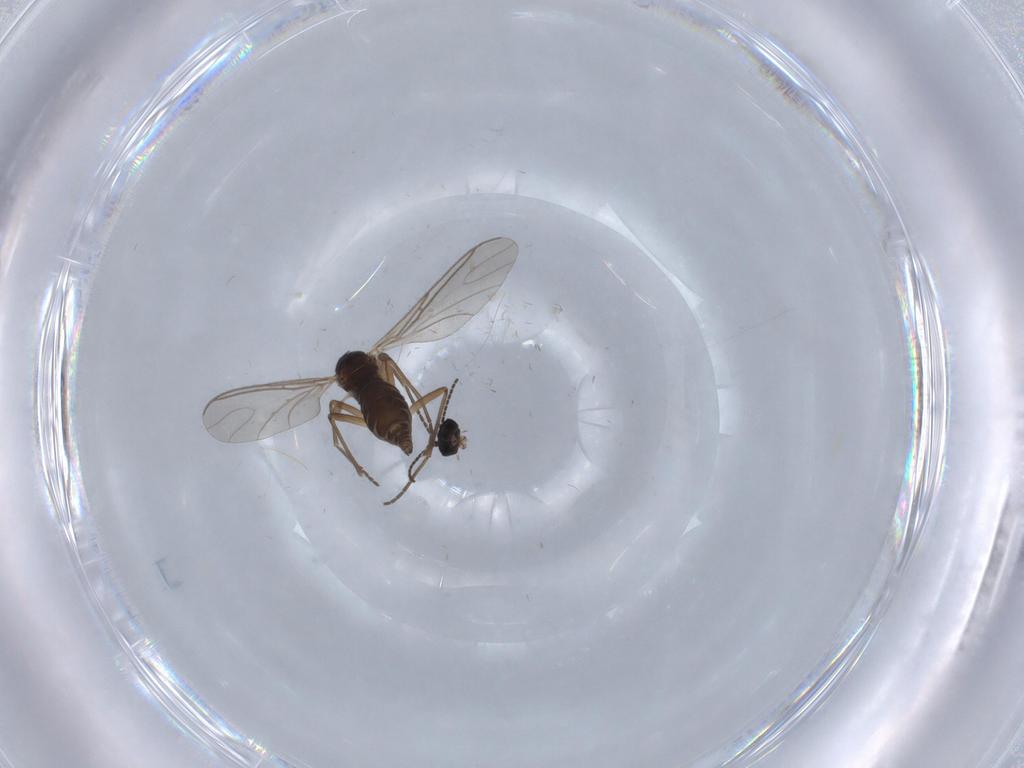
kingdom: Animalia
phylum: Arthropoda
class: Insecta
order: Diptera
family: Sciaridae
